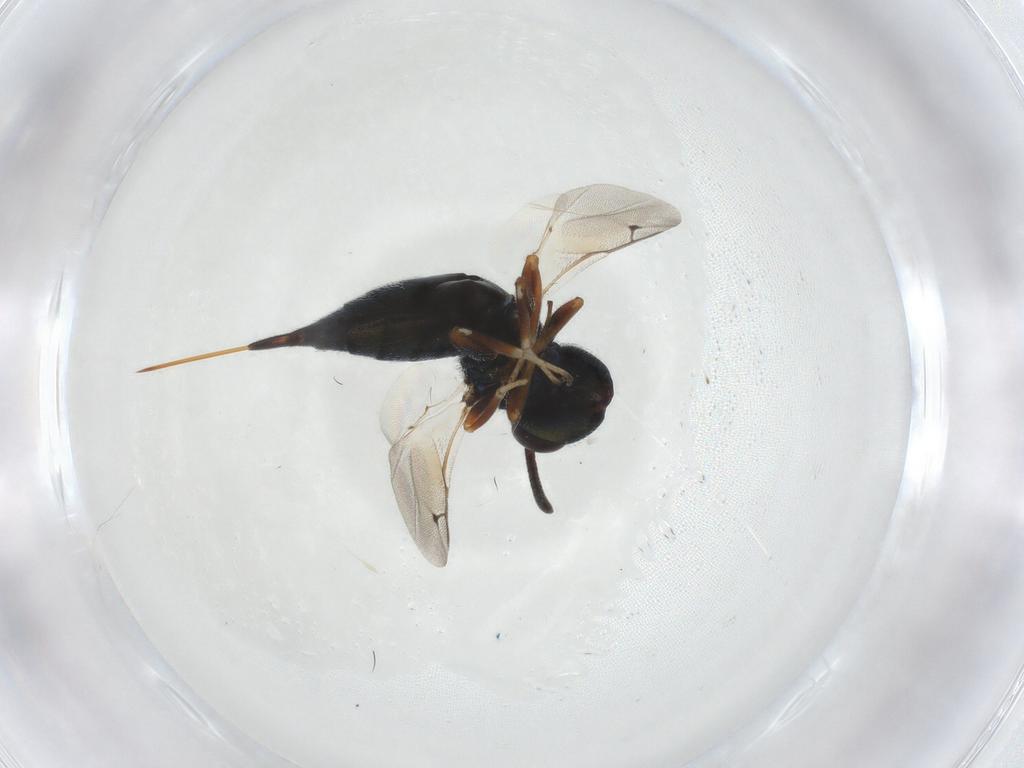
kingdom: Animalia
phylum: Arthropoda
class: Insecta
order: Hymenoptera
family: Pteromalidae
